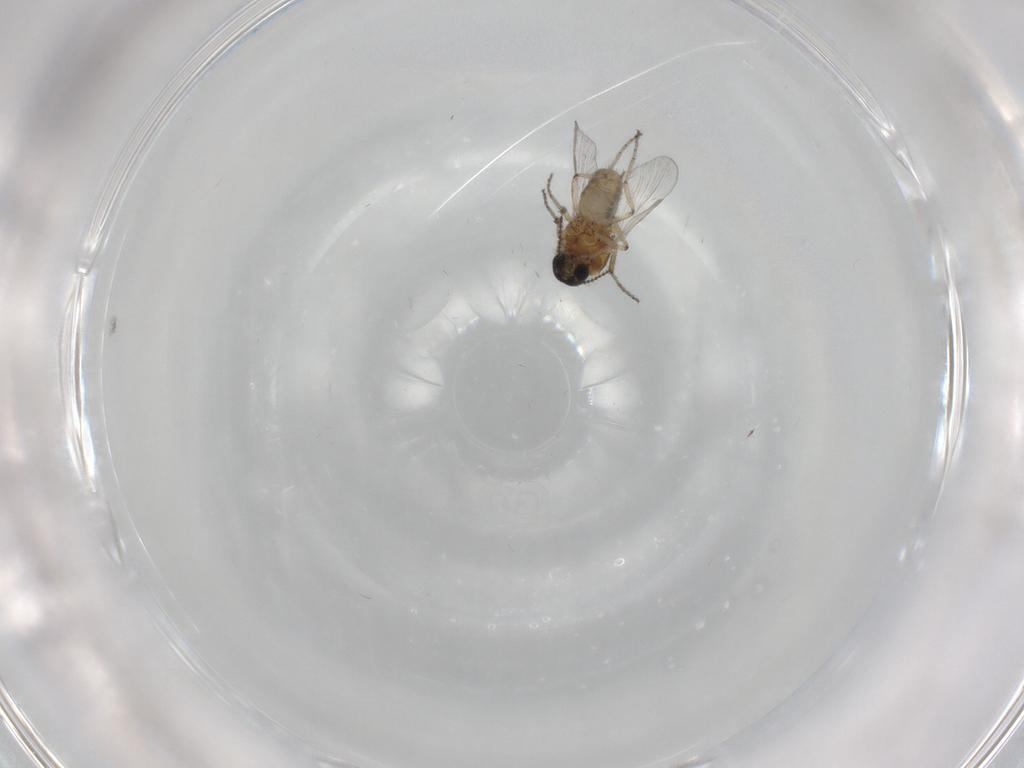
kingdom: Animalia
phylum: Arthropoda
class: Insecta
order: Diptera
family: Ceratopogonidae
